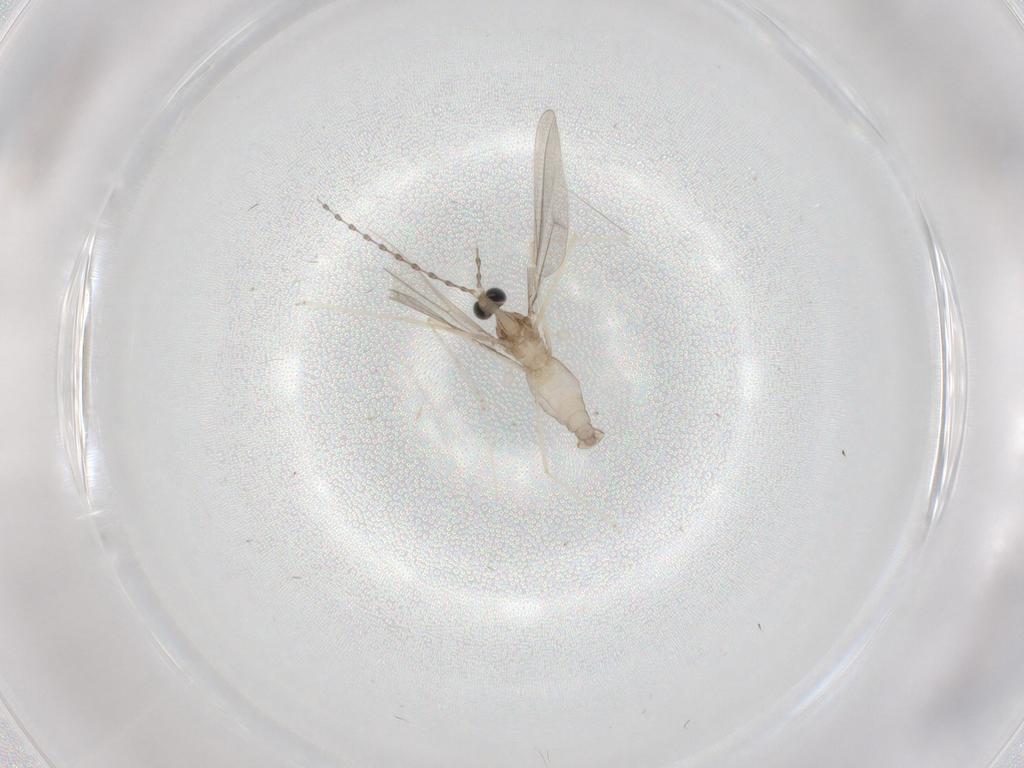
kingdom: Animalia
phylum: Arthropoda
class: Insecta
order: Diptera
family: Cecidomyiidae
